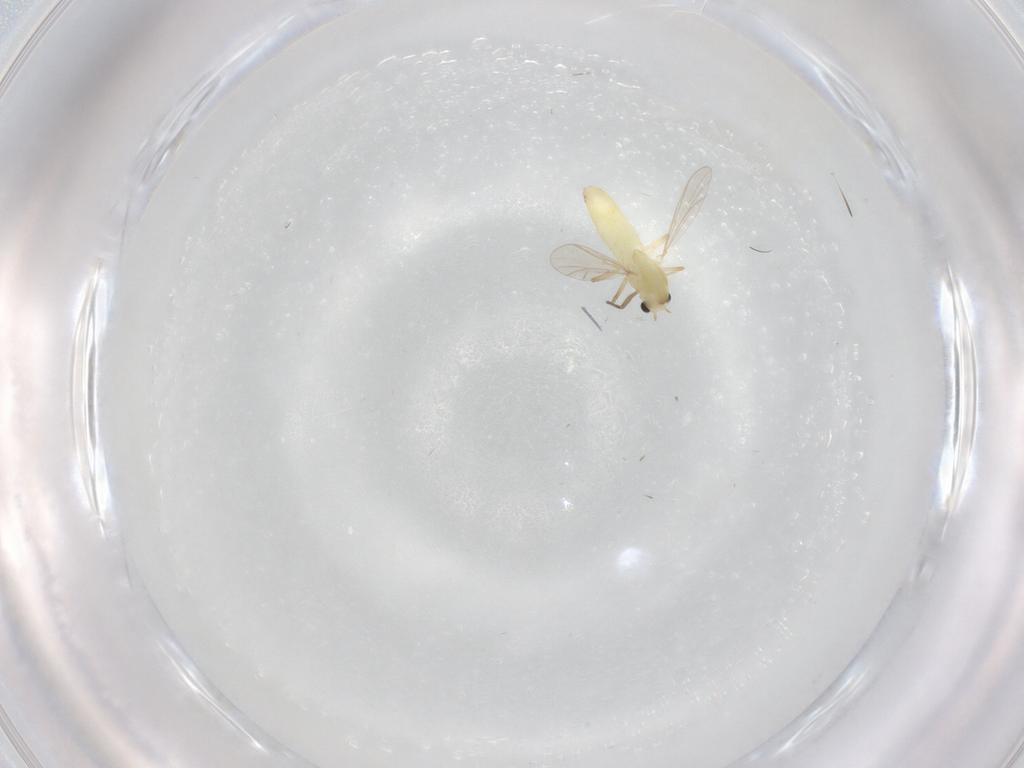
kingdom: Animalia
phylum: Arthropoda
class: Insecta
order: Diptera
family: Chironomidae
